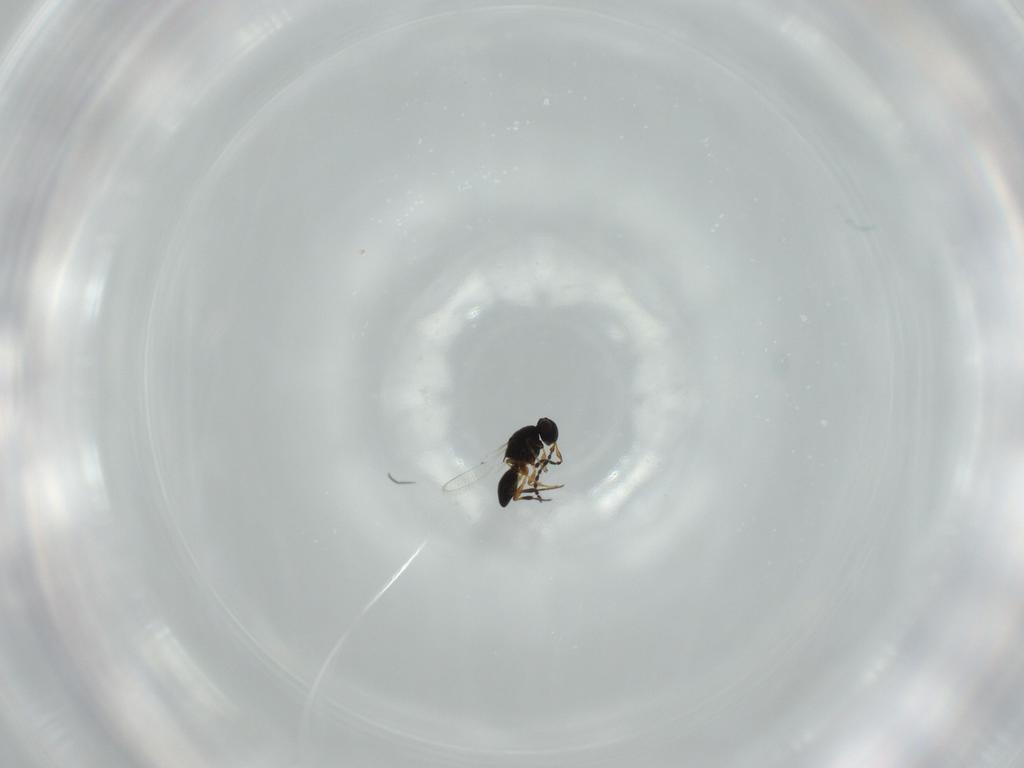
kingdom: Animalia
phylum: Arthropoda
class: Insecta
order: Hymenoptera
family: Platygastridae
